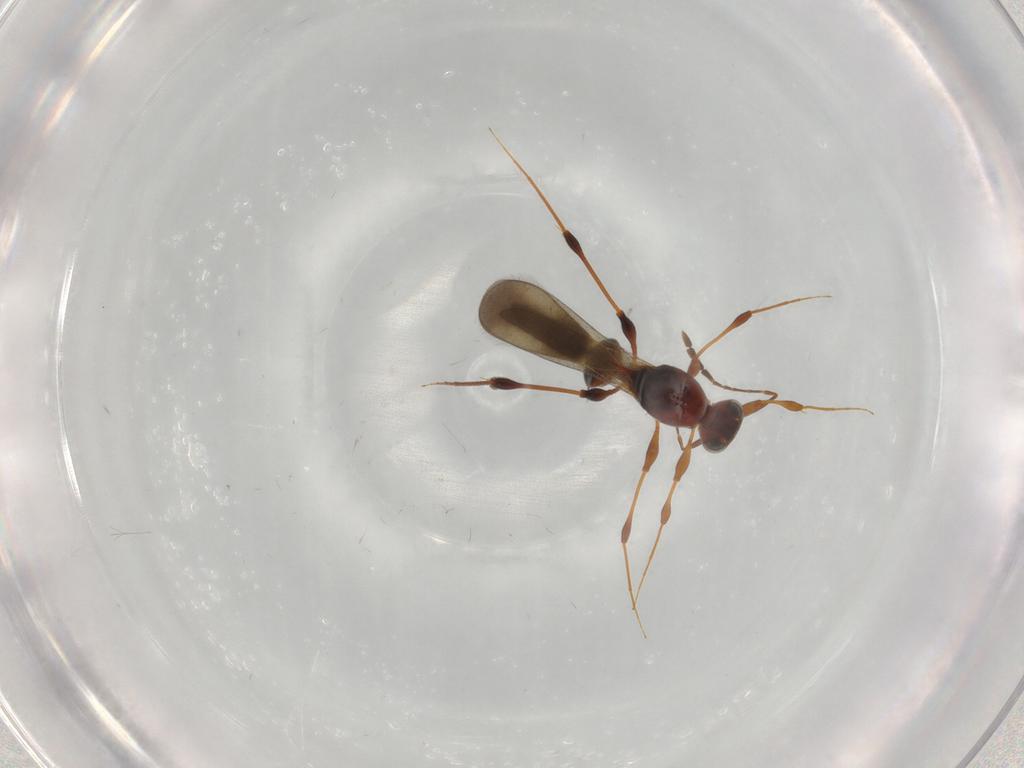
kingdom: Animalia
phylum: Arthropoda
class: Insecta
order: Hymenoptera
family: Platygastridae
